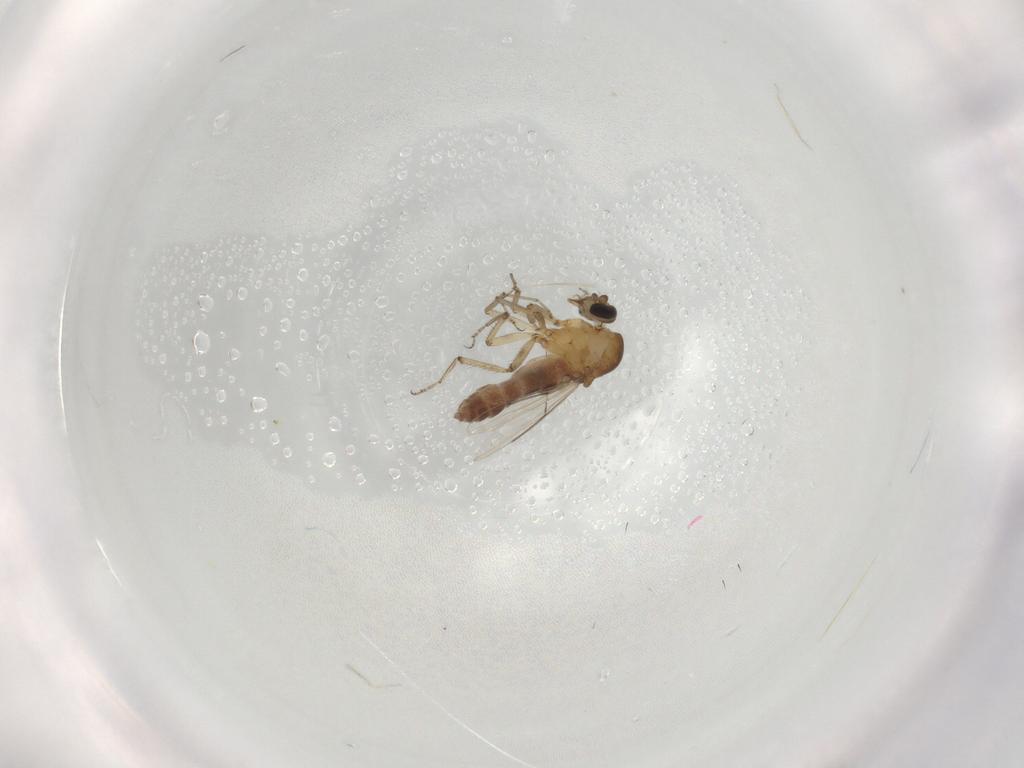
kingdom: Animalia
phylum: Arthropoda
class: Insecta
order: Diptera
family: Ceratopogonidae
